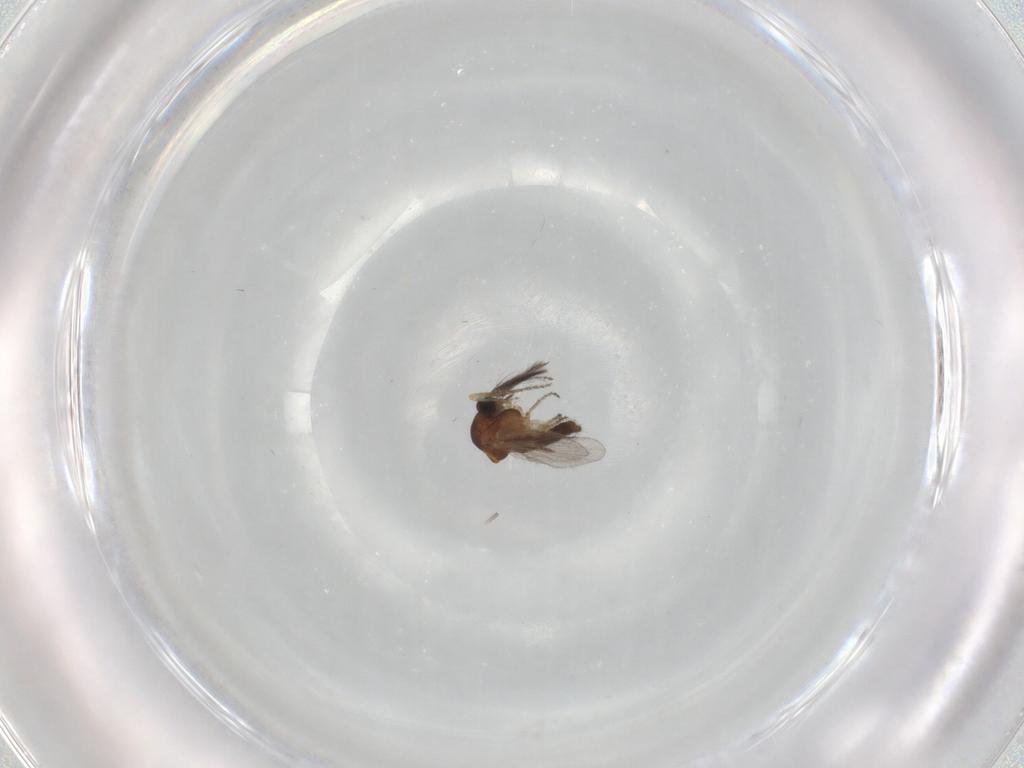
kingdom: Animalia
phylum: Arthropoda
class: Insecta
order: Diptera
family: Ceratopogonidae
